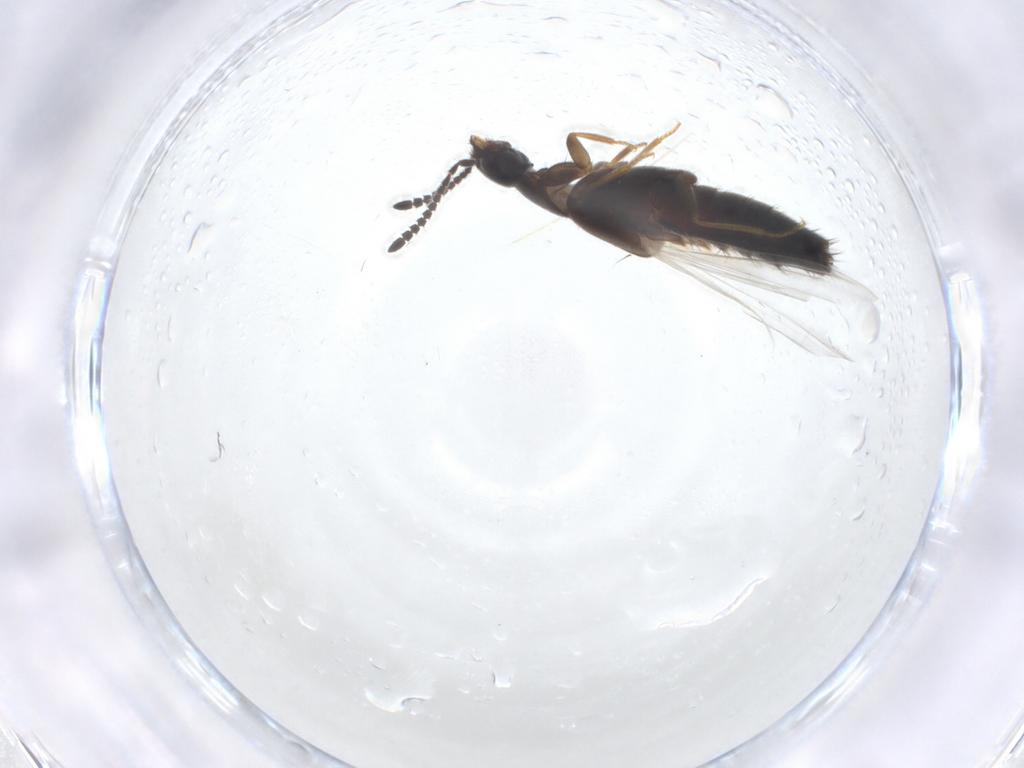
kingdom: Animalia
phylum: Arthropoda
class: Insecta
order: Coleoptera
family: Staphylinidae
